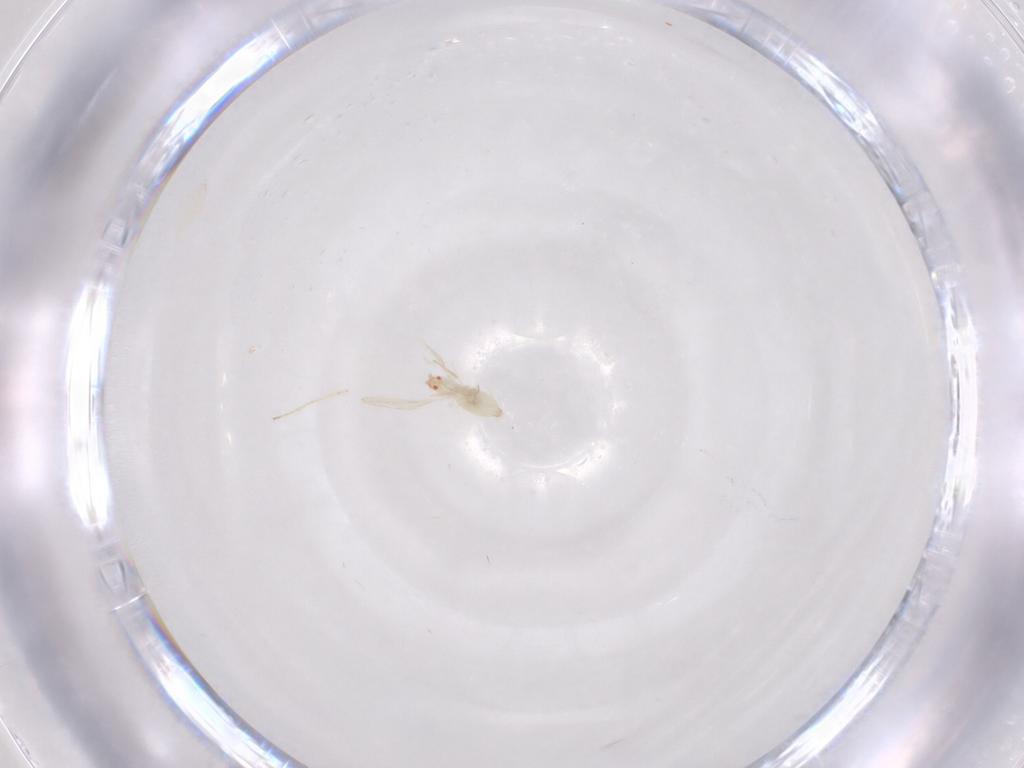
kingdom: Animalia
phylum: Arthropoda
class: Insecta
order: Diptera
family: Cecidomyiidae
